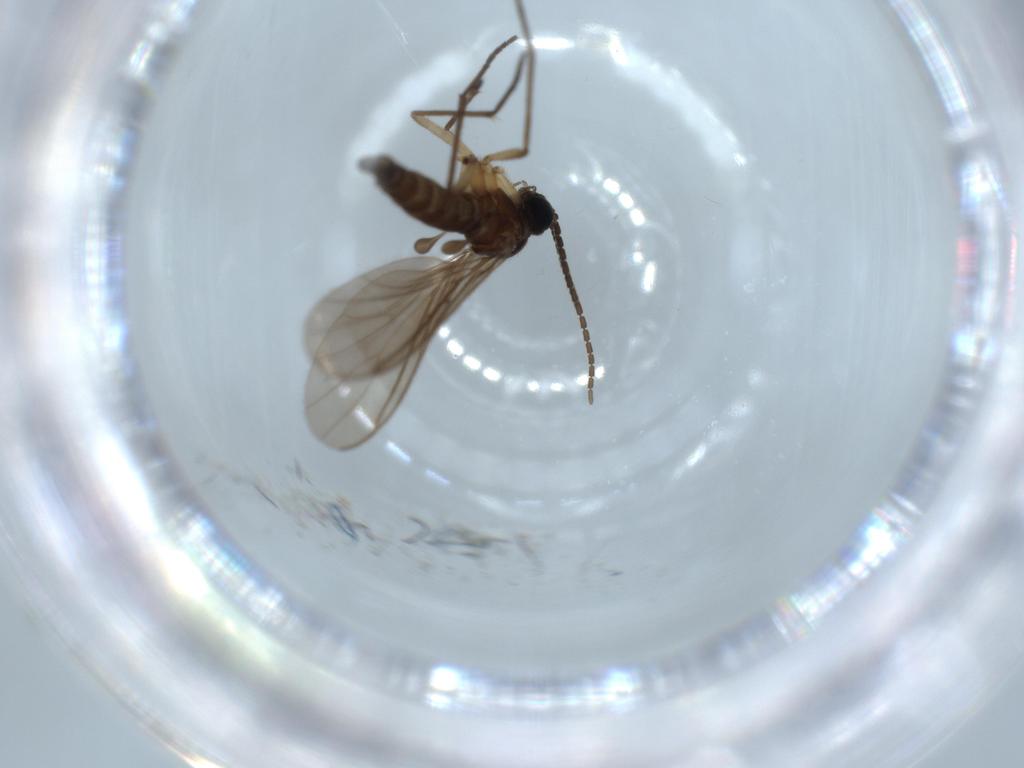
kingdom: Animalia
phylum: Arthropoda
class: Insecta
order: Diptera
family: Sciaridae
